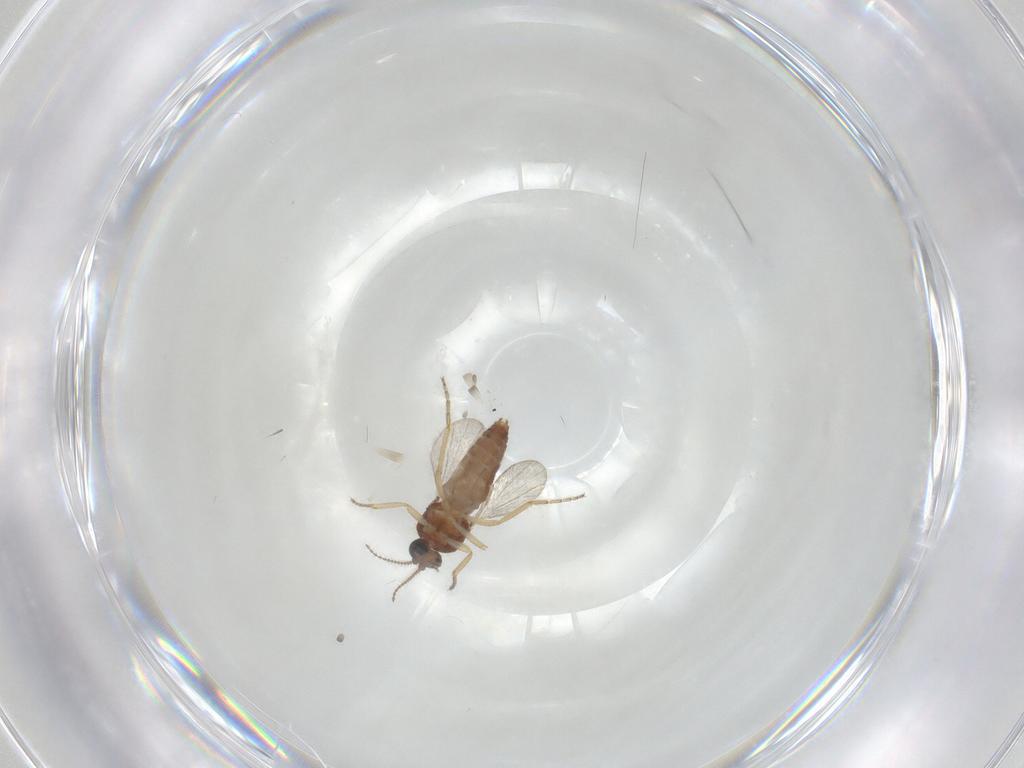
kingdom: Animalia
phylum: Arthropoda
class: Insecta
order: Diptera
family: Ceratopogonidae
